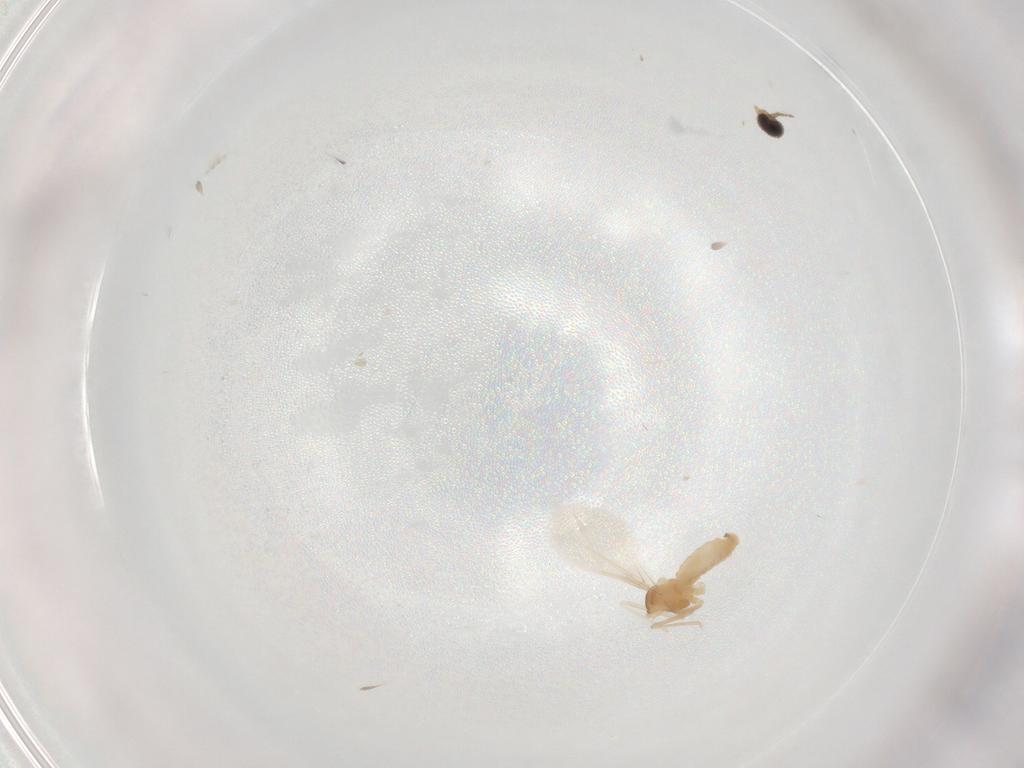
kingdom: Animalia
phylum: Arthropoda
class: Insecta
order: Diptera
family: Cecidomyiidae
